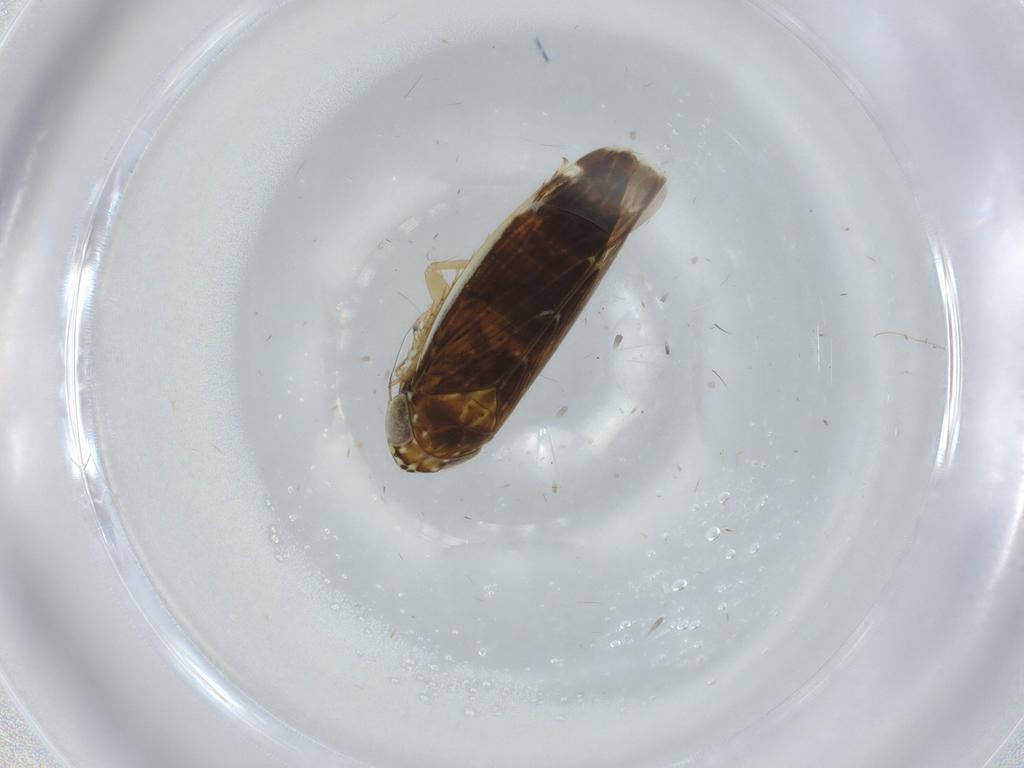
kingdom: Animalia
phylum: Arthropoda
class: Insecta
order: Hemiptera
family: Cicadellidae
